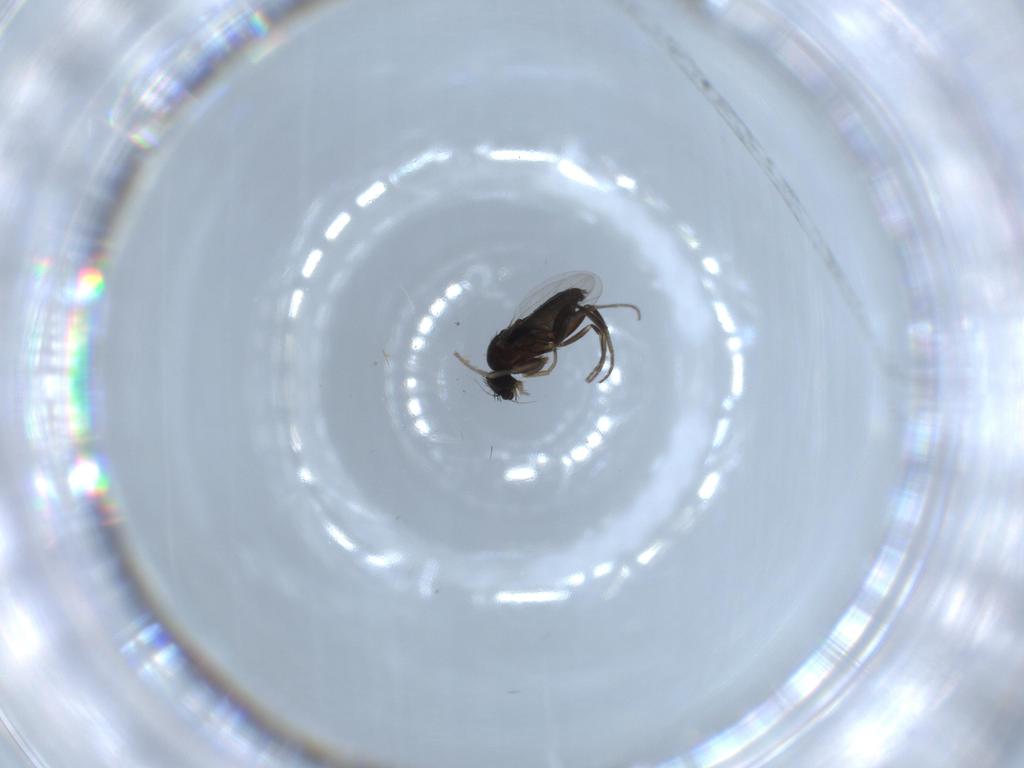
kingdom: Animalia
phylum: Arthropoda
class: Insecta
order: Diptera
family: Phoridae
